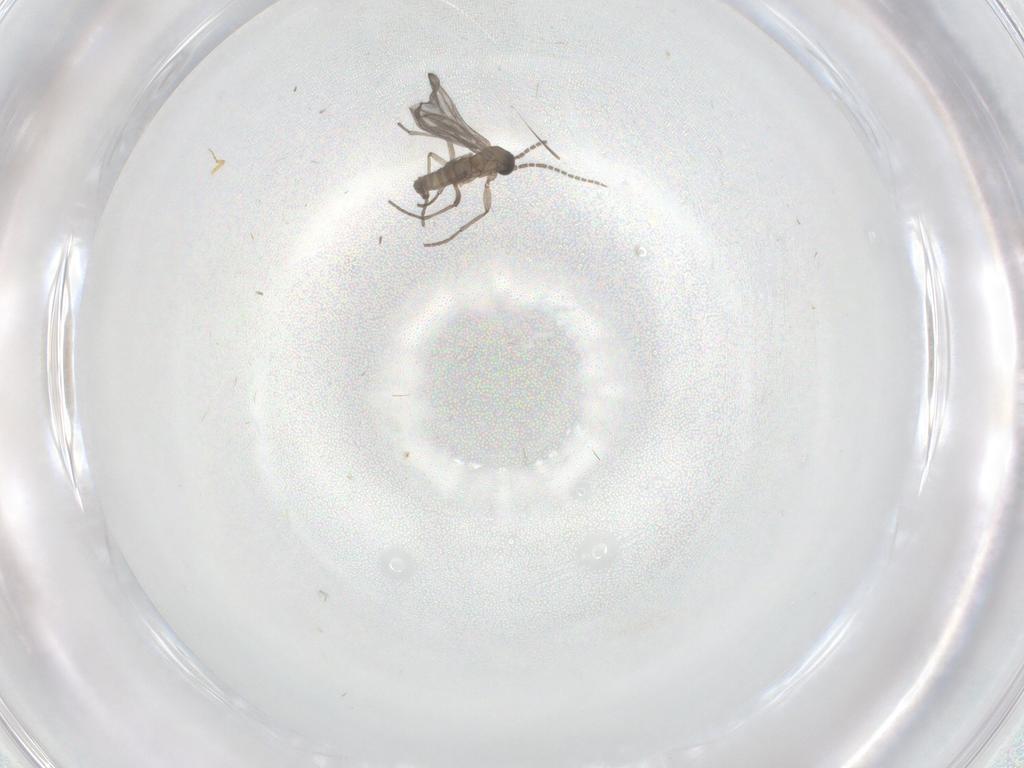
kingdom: Animalia
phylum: Arthropoda
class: Insecta
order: Diptera
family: Sciaridae
